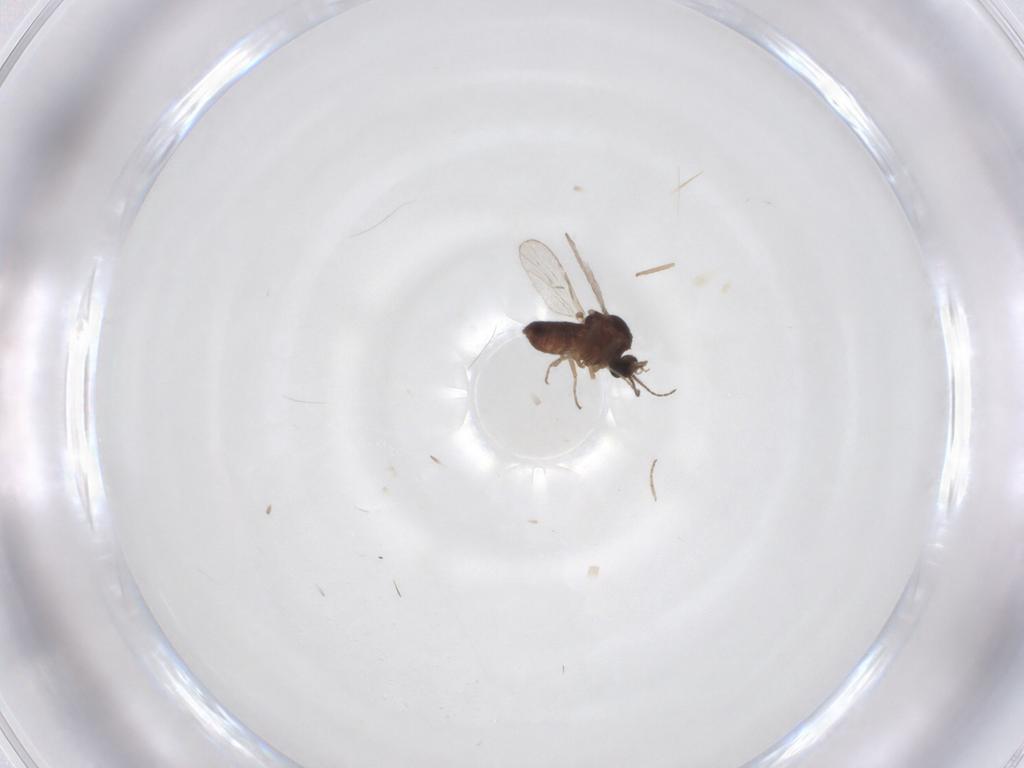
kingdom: Animalia
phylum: Arthropoda
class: Insecta
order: Diptera
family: Ceratopogonidae
